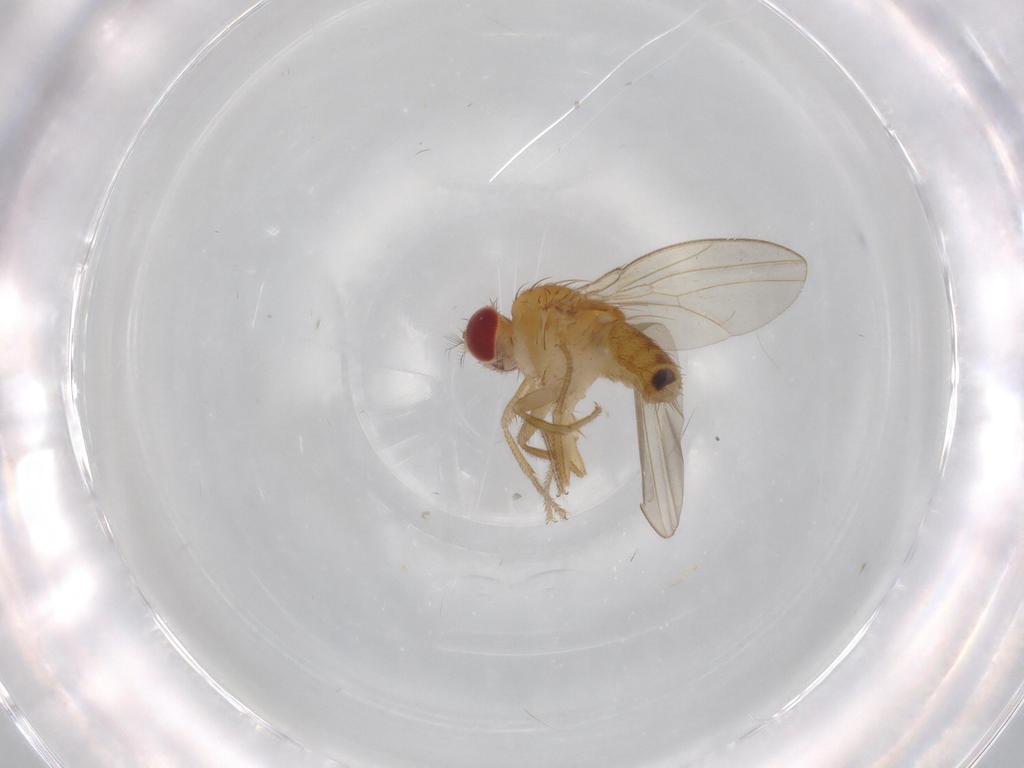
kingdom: Animalia
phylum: Arthropoda
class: Insecta
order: Diptera
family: Drosophilidae
